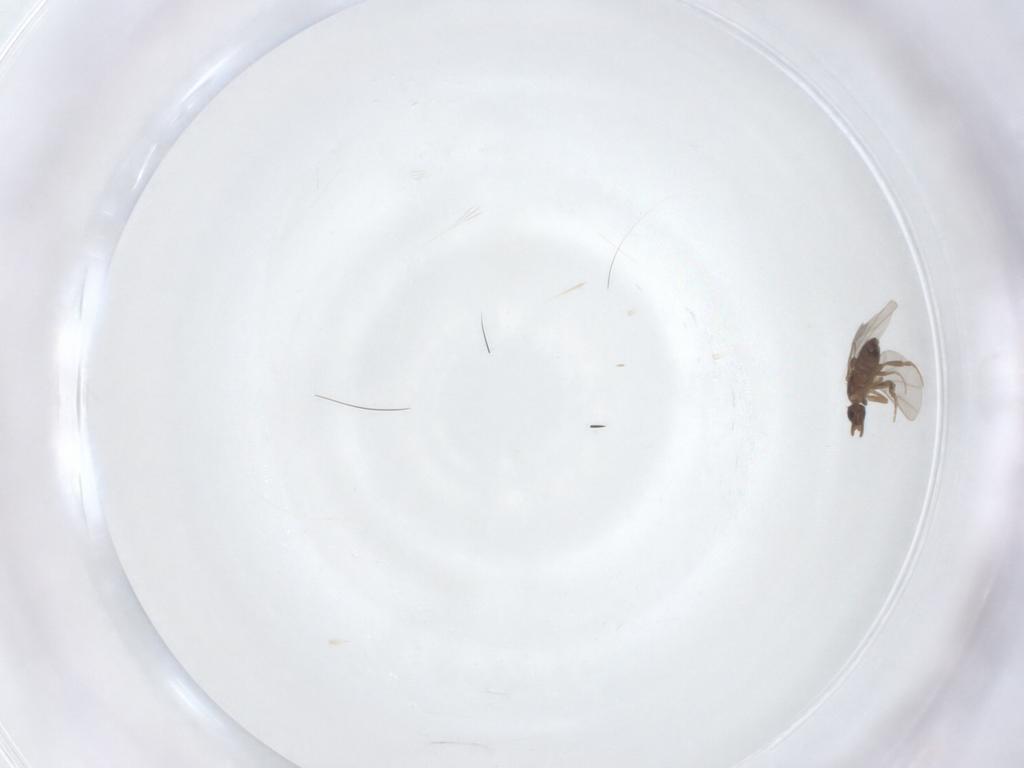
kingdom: Animalia
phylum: Arthropoda
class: Insecta
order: Diptera
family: Phoridae
